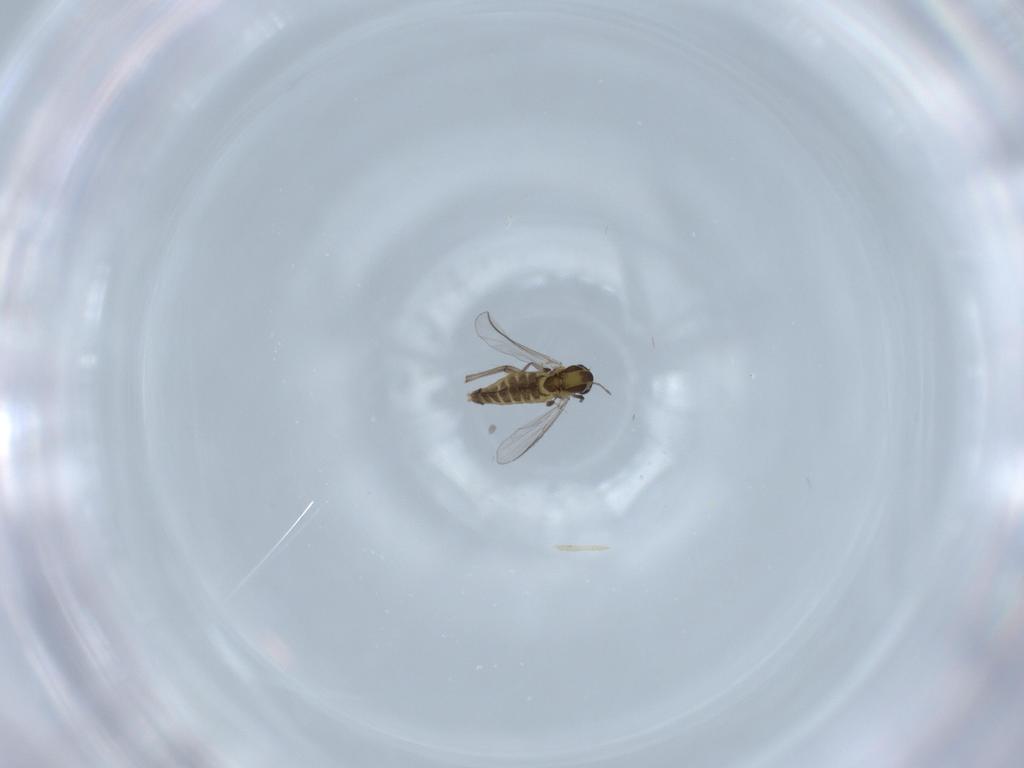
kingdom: Animalia
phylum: Arthropoda
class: Insecta
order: Diptera
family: Chironomidae
